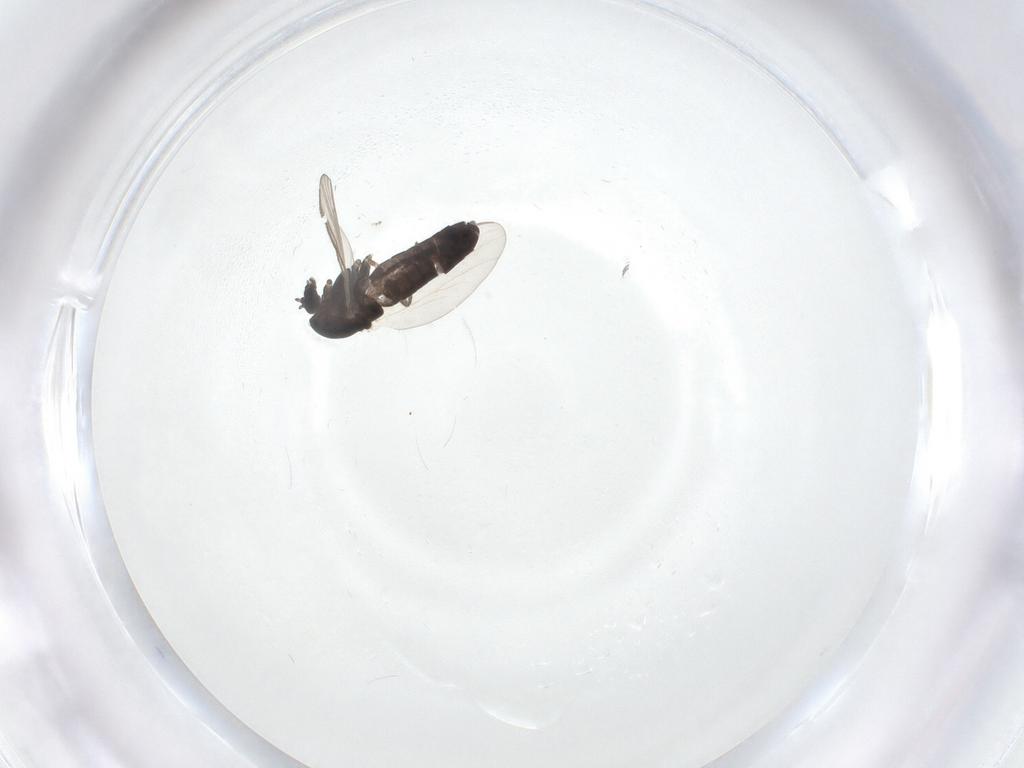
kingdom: Animalia
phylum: Arthropoda
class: Insecta
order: Diptera
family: Chironomidae
